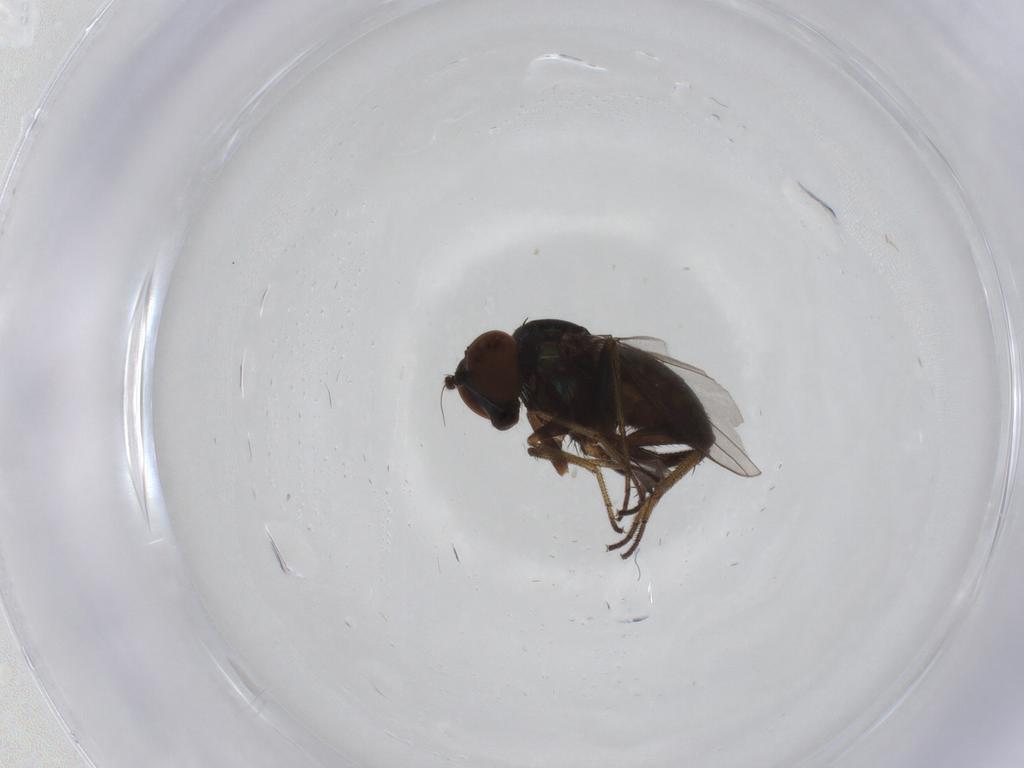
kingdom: Animalia
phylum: Arthropoda
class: Insecta
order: Diptera
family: Dolichopodidae
